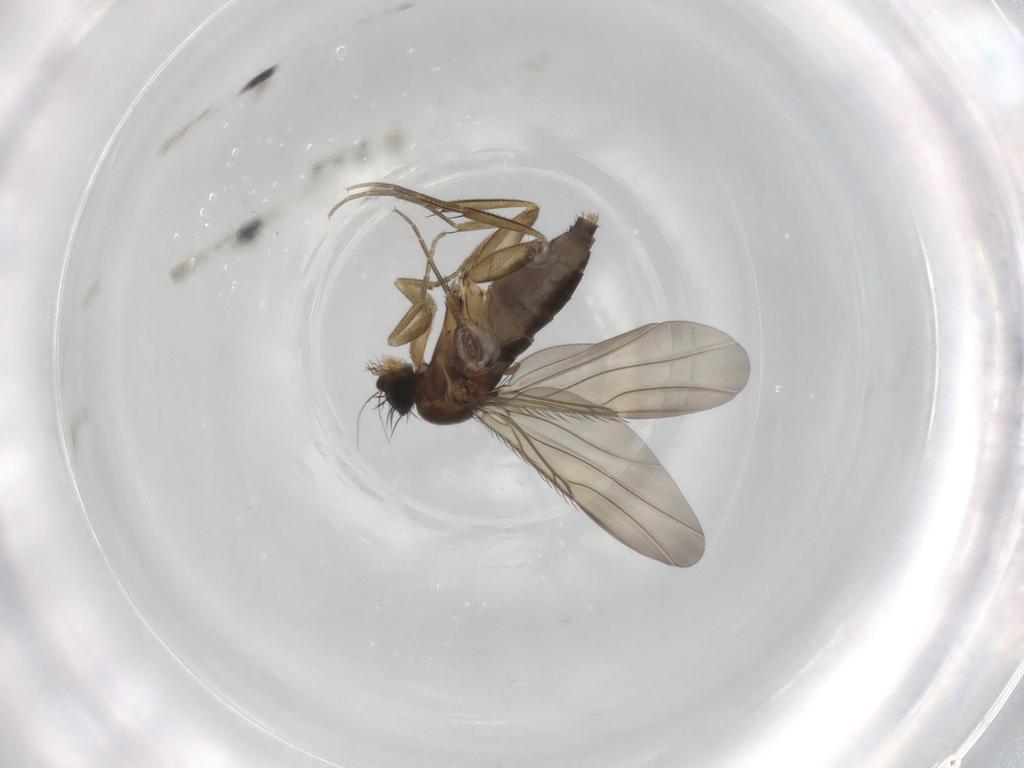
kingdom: Animalia
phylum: Arthropoda
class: Insecta
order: Diptera
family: Phoridae
